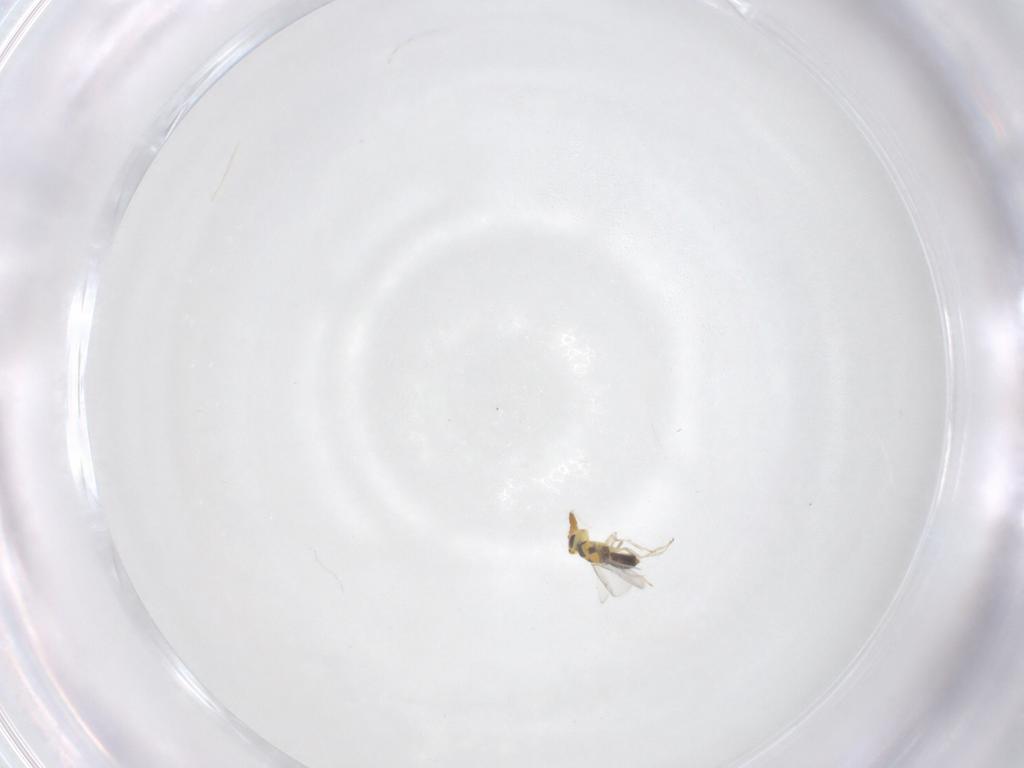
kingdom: Animalia
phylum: Arthropoda
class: Insecta
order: Diptera
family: Sciaridae
